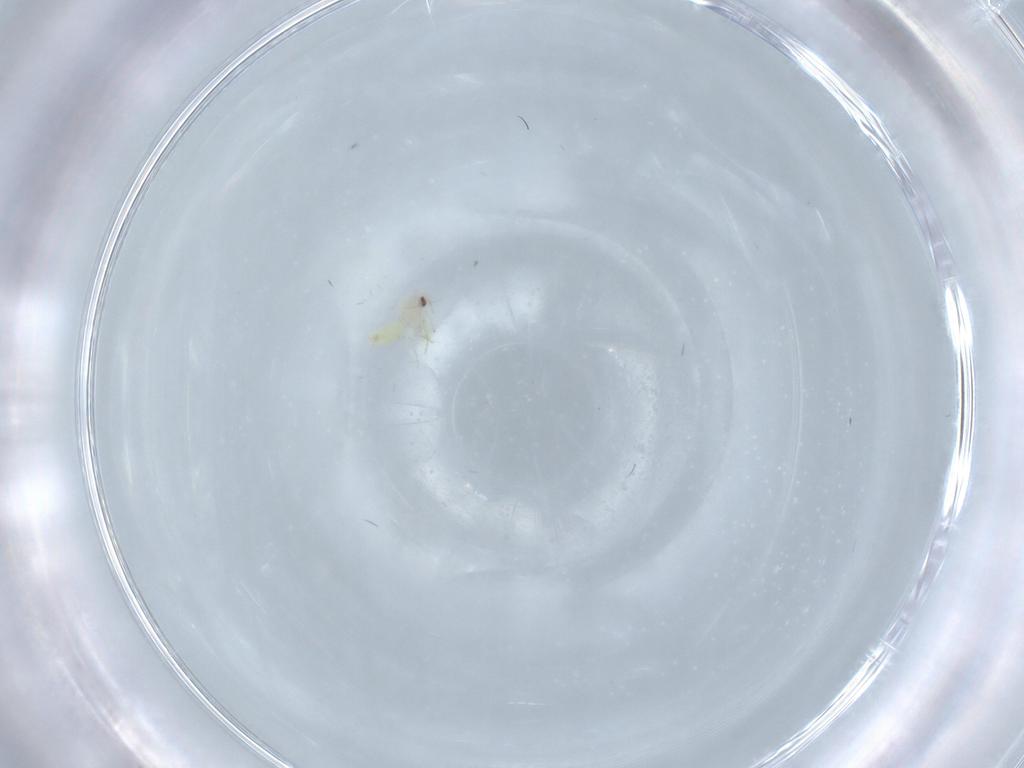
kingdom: Animalia
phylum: Arthropoda
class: Insecta
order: Hemiptera
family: Aleyrodidae
